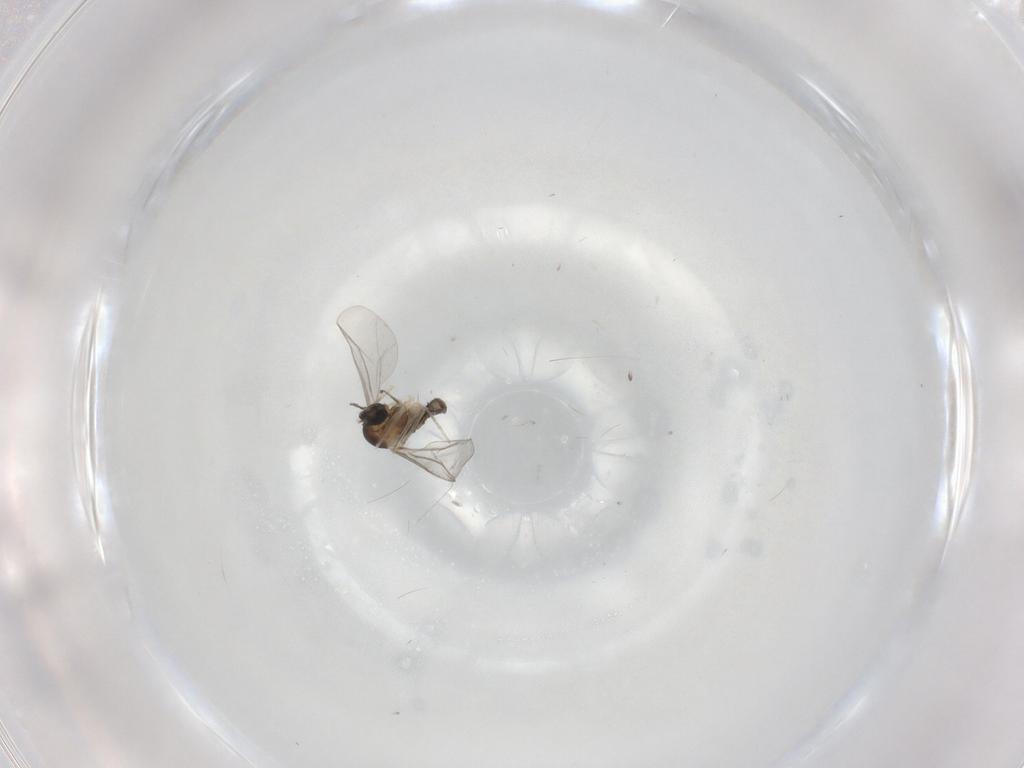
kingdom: Animalia
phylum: Arthropoda
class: Insecta
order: Diptera
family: Cecidomyiidae
